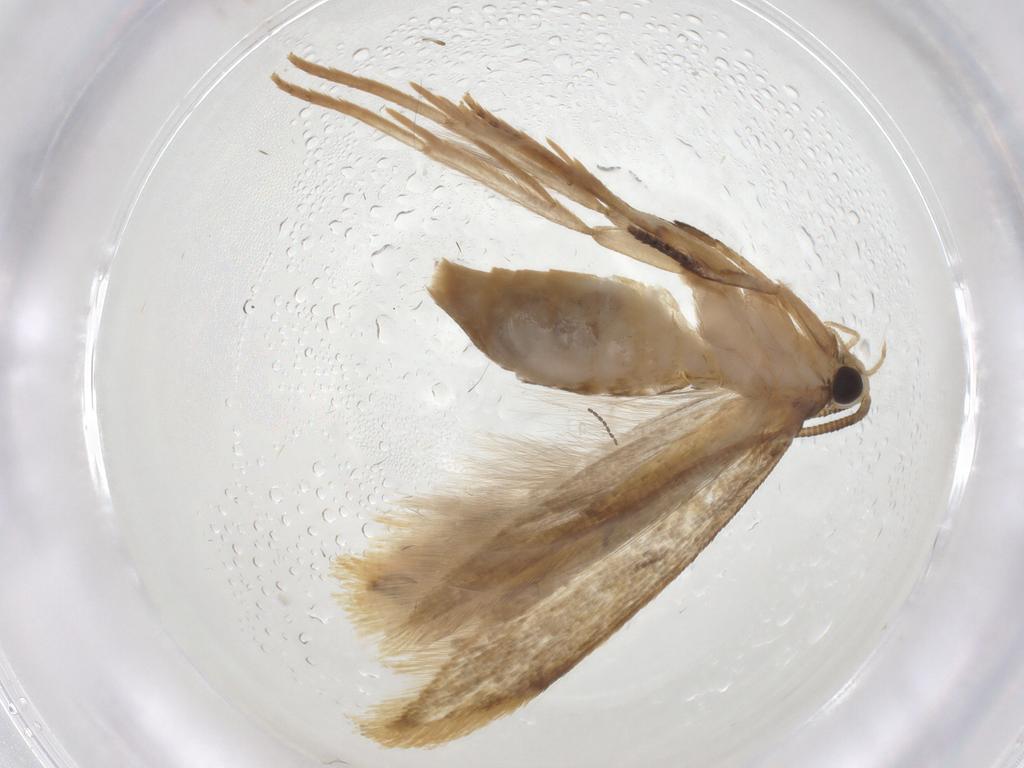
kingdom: Animalia
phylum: Arthropoda
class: Insecta
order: Lepidoptera
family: Tineidae
